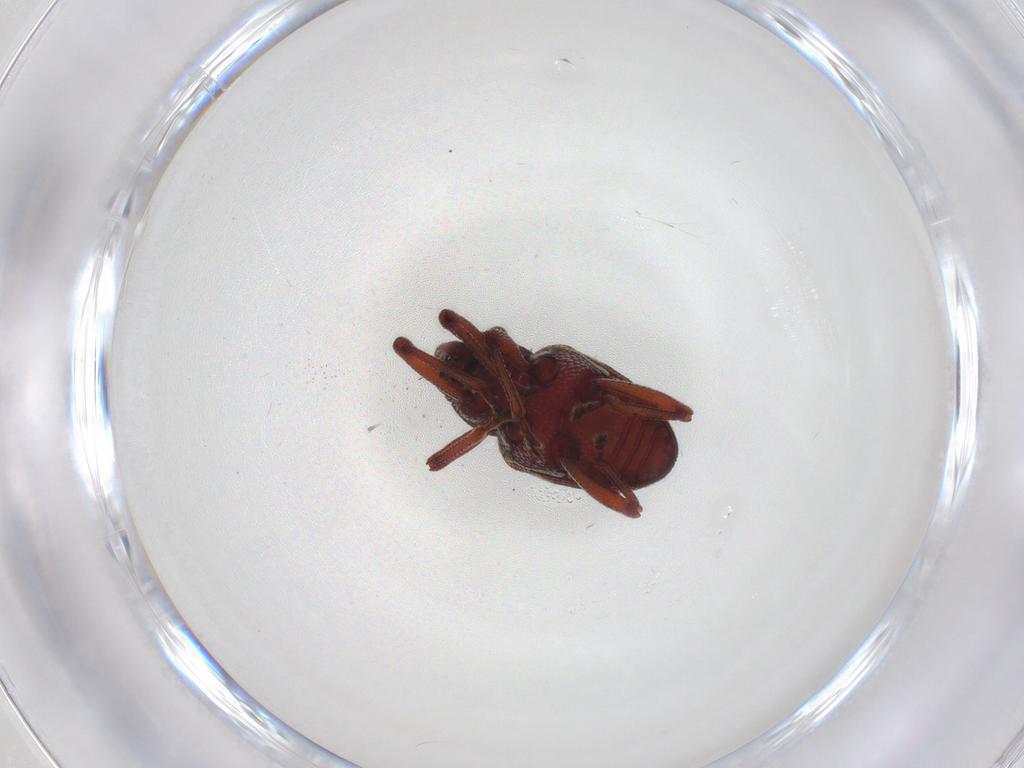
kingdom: Animalia
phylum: Arthropoda
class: Insecta
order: Coleoptera
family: Curculionidae
